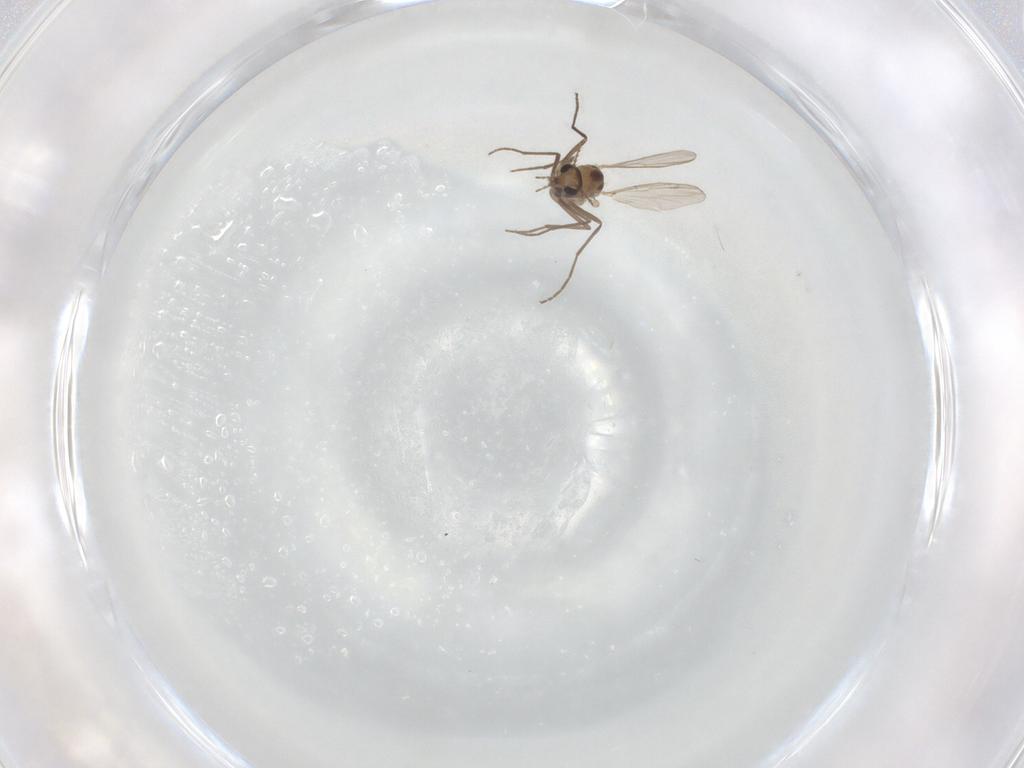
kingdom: Animalia
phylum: Arthropoda
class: Insecta
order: Diptera
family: Chironomidae
